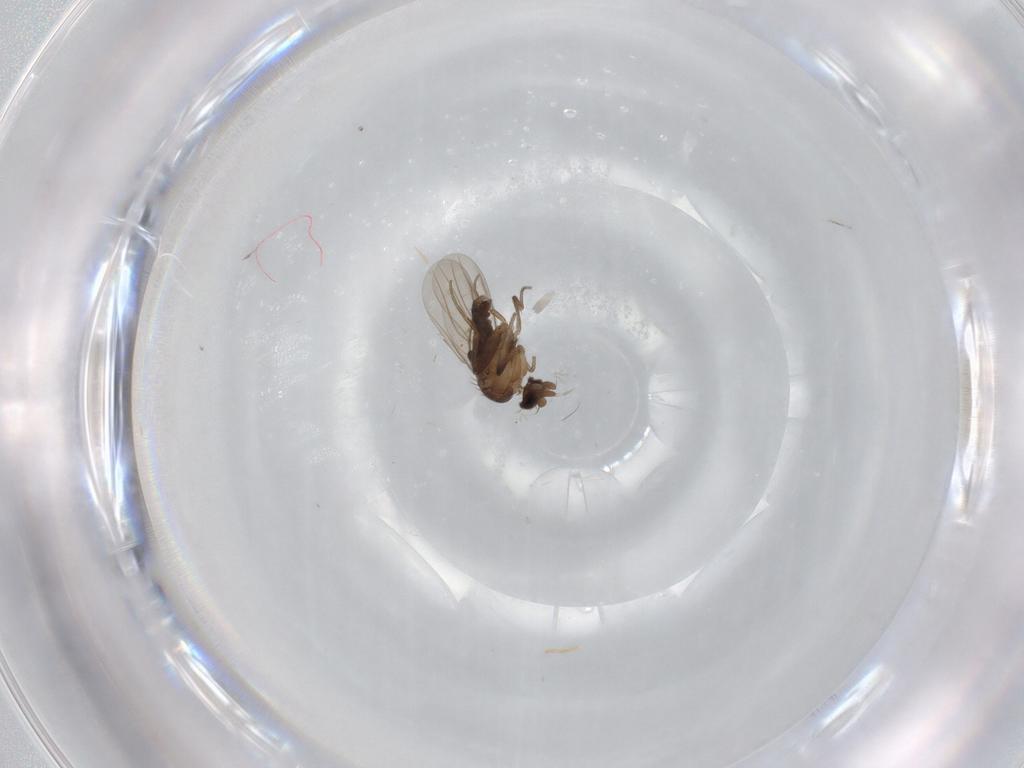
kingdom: Animalia
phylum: Arthropoda
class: Insecta
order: Diptera
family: Phoridae
